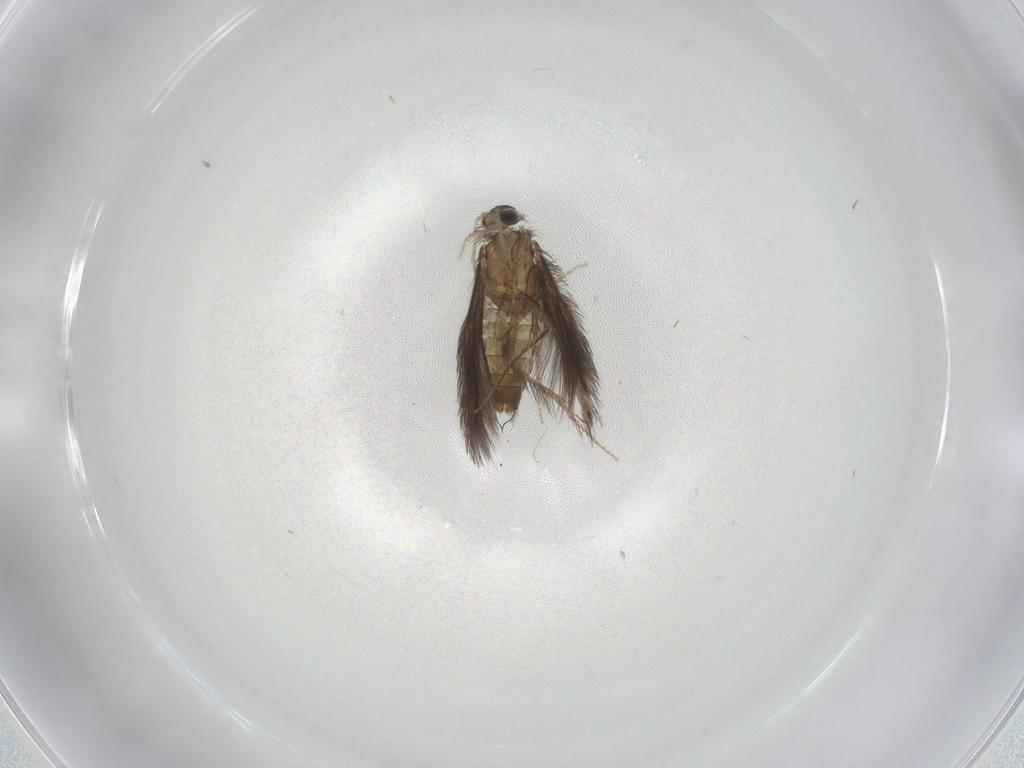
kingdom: Animalia
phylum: Arthropoda
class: Insecta
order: Trichoptera
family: Hydroptilidae
